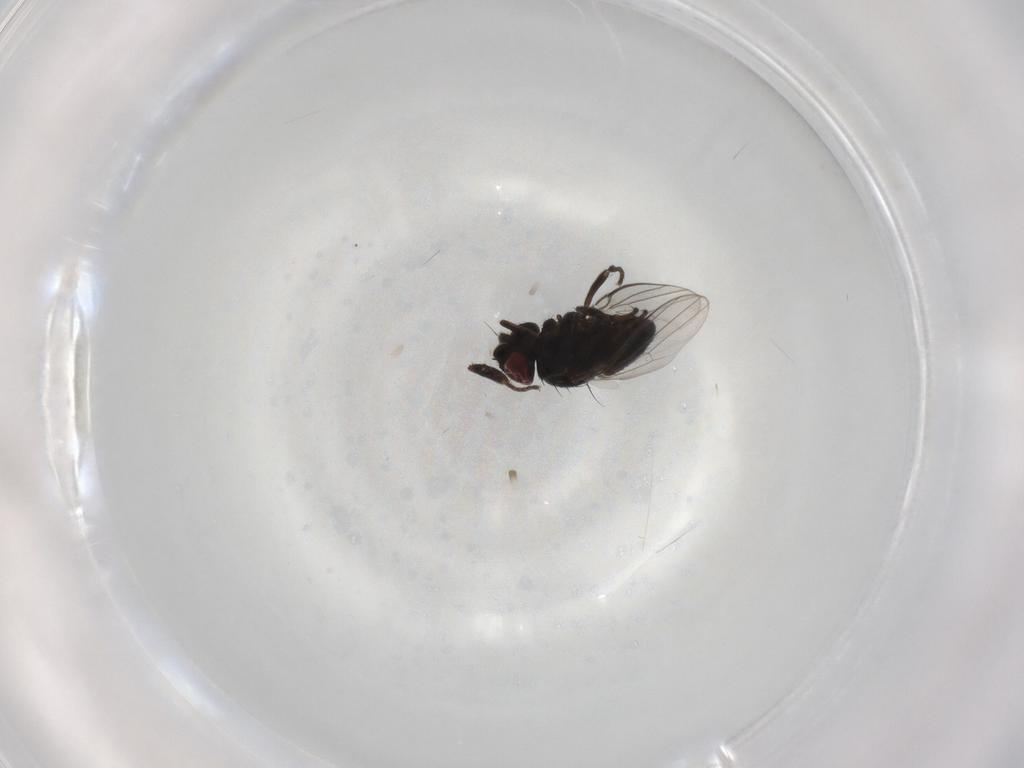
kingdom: Animalia
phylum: Arthropoda
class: Insecta
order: Diptera
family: Milichiidae
